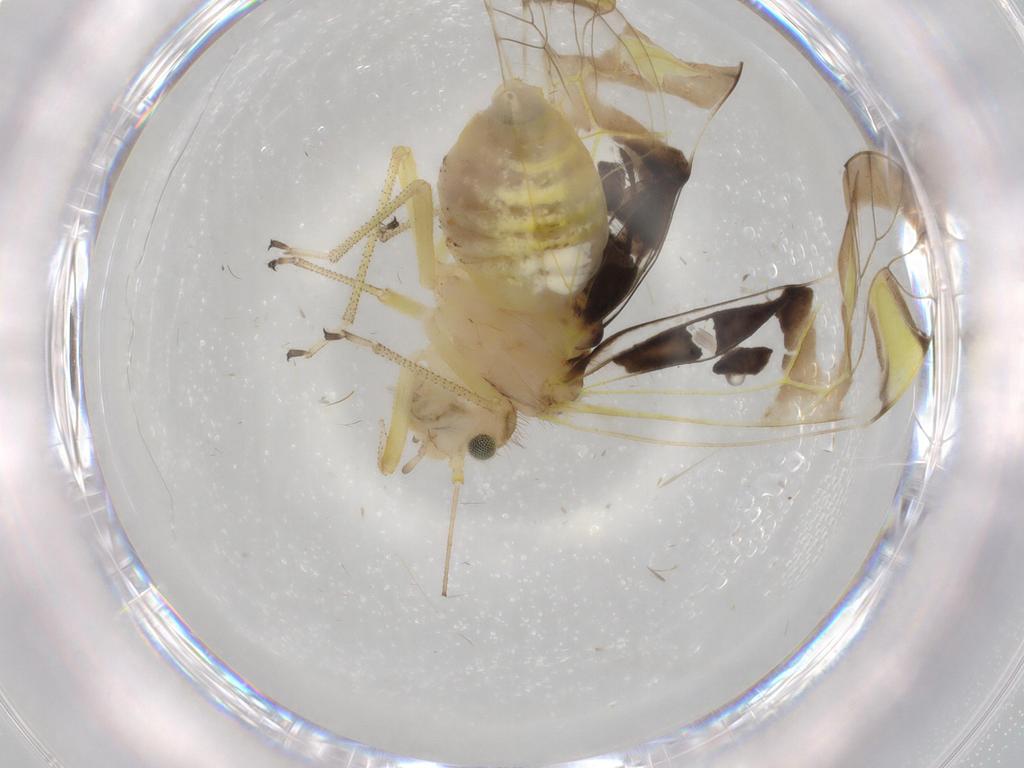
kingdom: Animalia
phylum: Arthropoda
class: Insecta
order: Psocodea
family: Amphipsocidae
